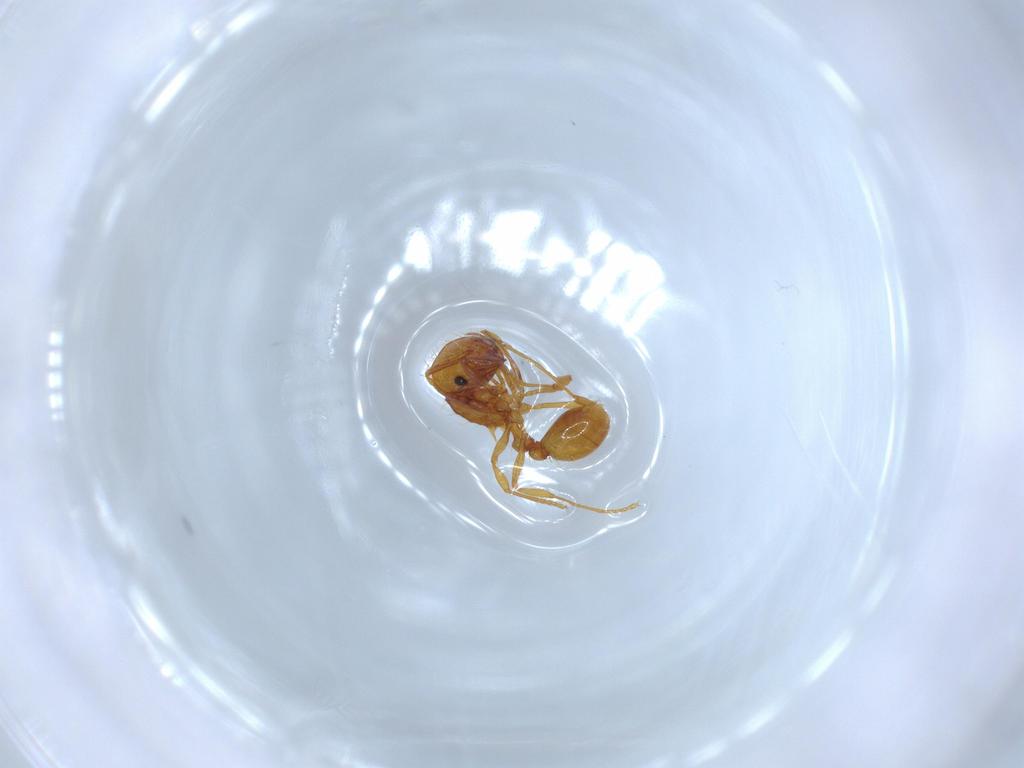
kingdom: Animalia
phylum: Arthropoda
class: Insecta
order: Hymenoptera
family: Formicidae
